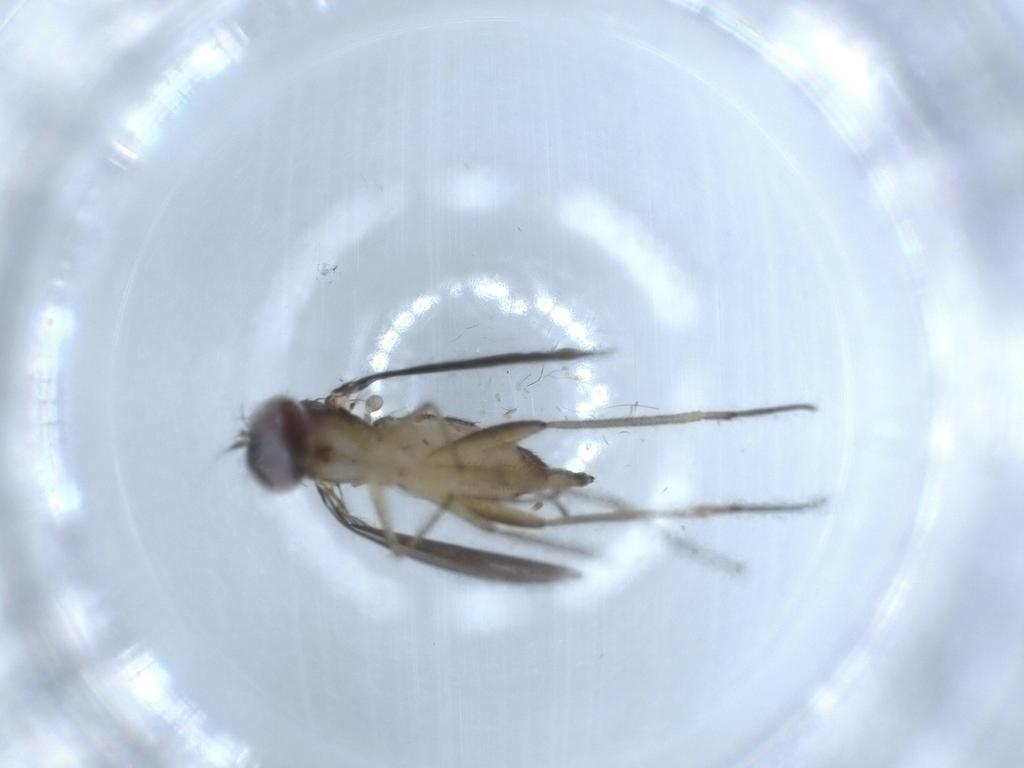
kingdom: Animalia
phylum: Arthropoda
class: Insecta
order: Diptera
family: Dolichopodidae
